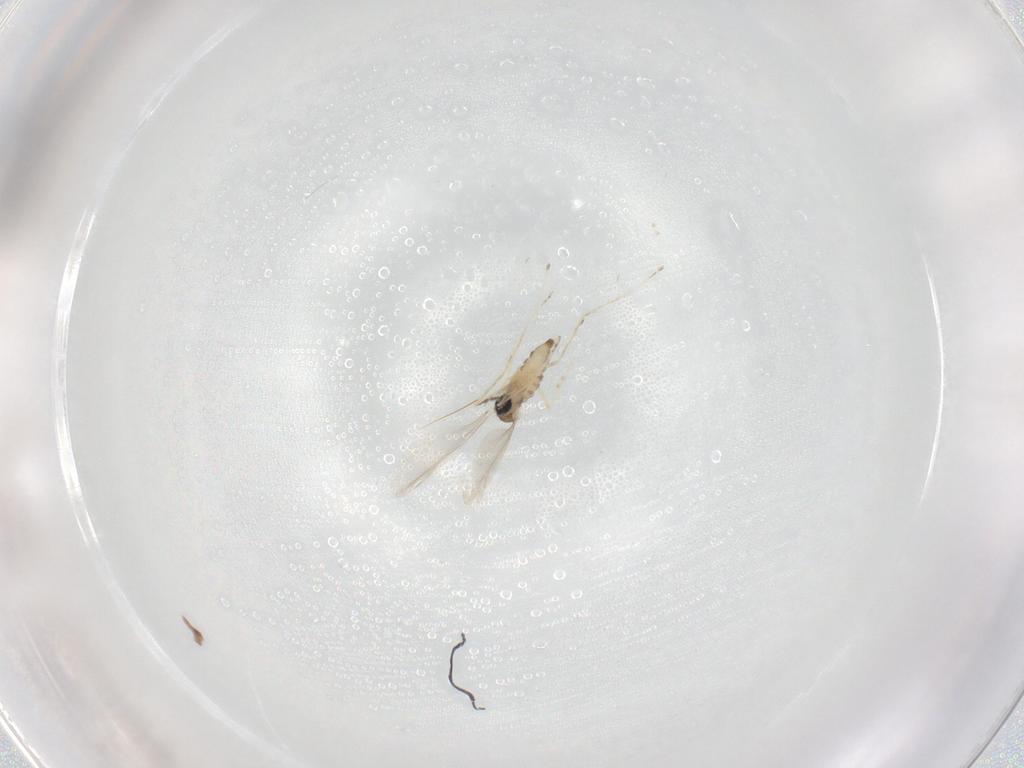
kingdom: Animalia
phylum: Arthropoda
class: Insecta
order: Diptera
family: Cecidomyiidae
